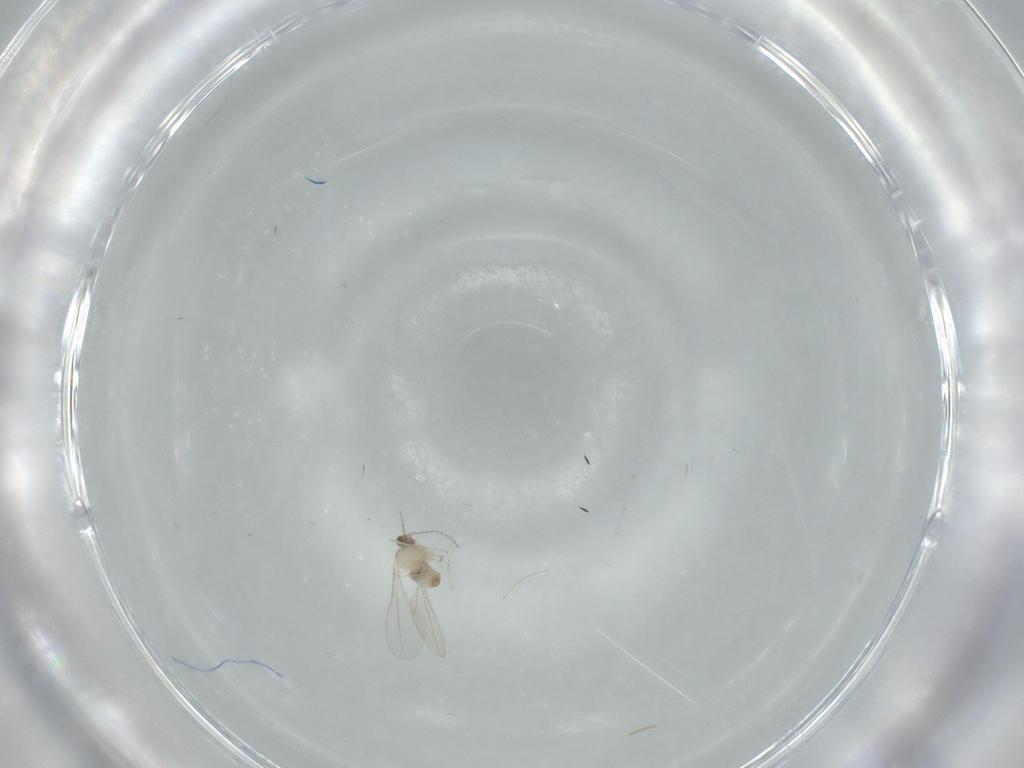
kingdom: Animalia
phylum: Arthropoda
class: Insecta
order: Diptera
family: Cecidomyiidae
